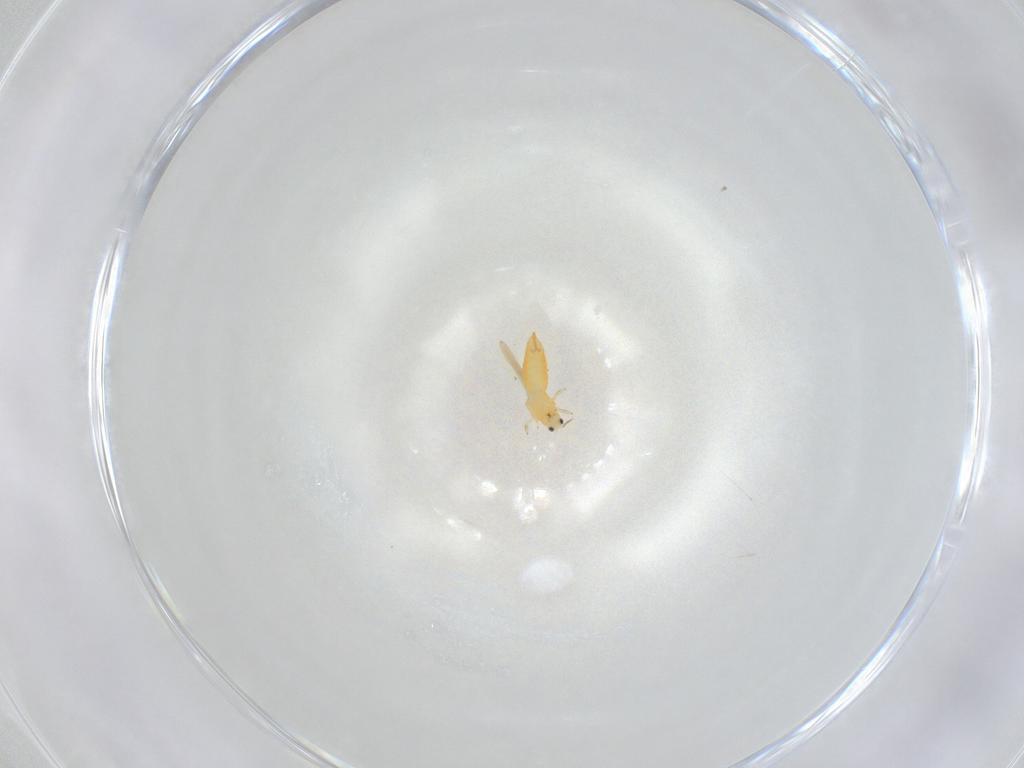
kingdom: Animalia
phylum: Arthropoda
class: Insecta
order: Thysanoptera
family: Thripidae
